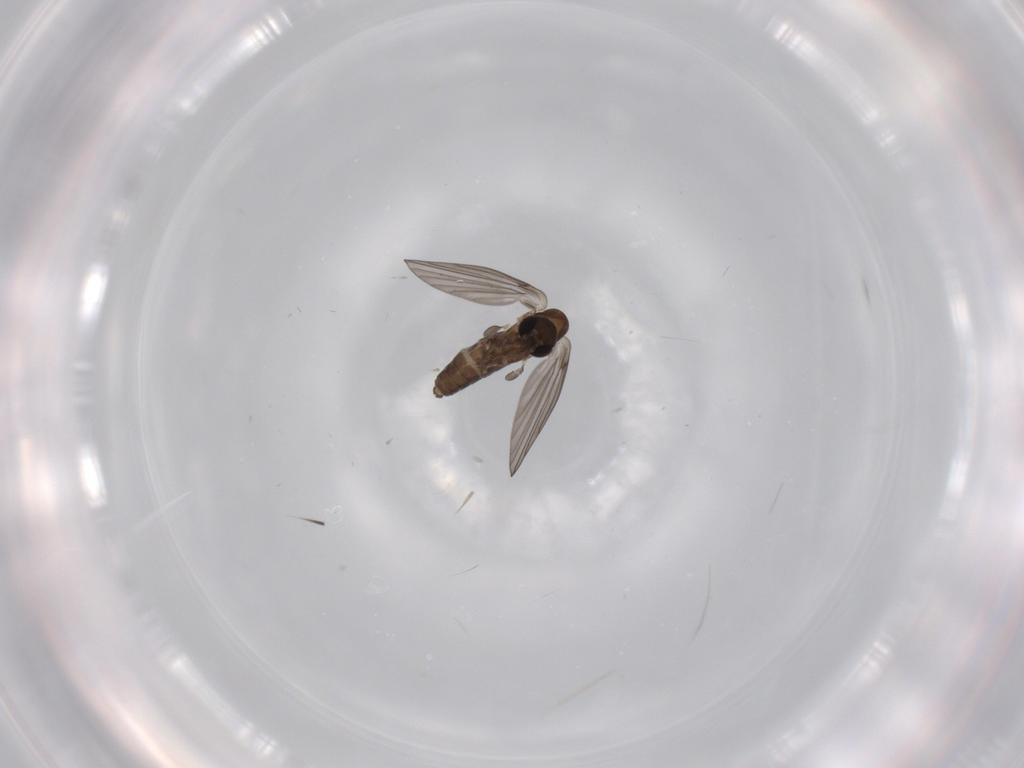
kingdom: Animalia
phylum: Arthropoda
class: Insecta
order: Diptera
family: Psychodidae
